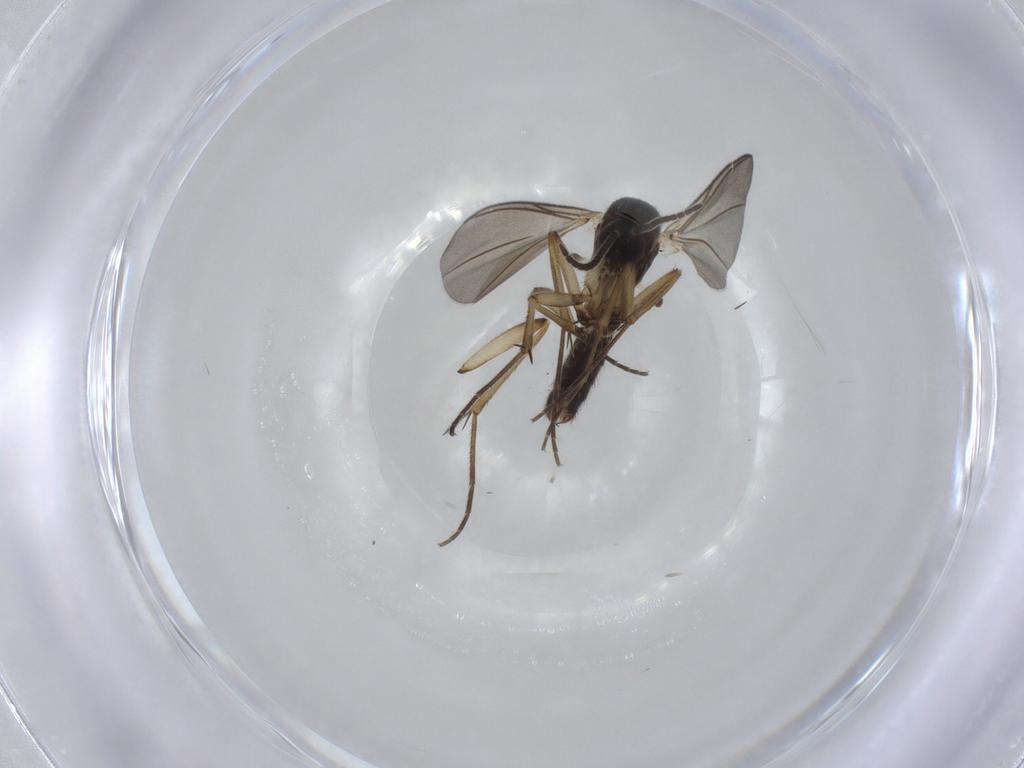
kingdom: Animalia
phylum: Arthropoda
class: Insecta
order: Diptera
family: Mycetophilidae
